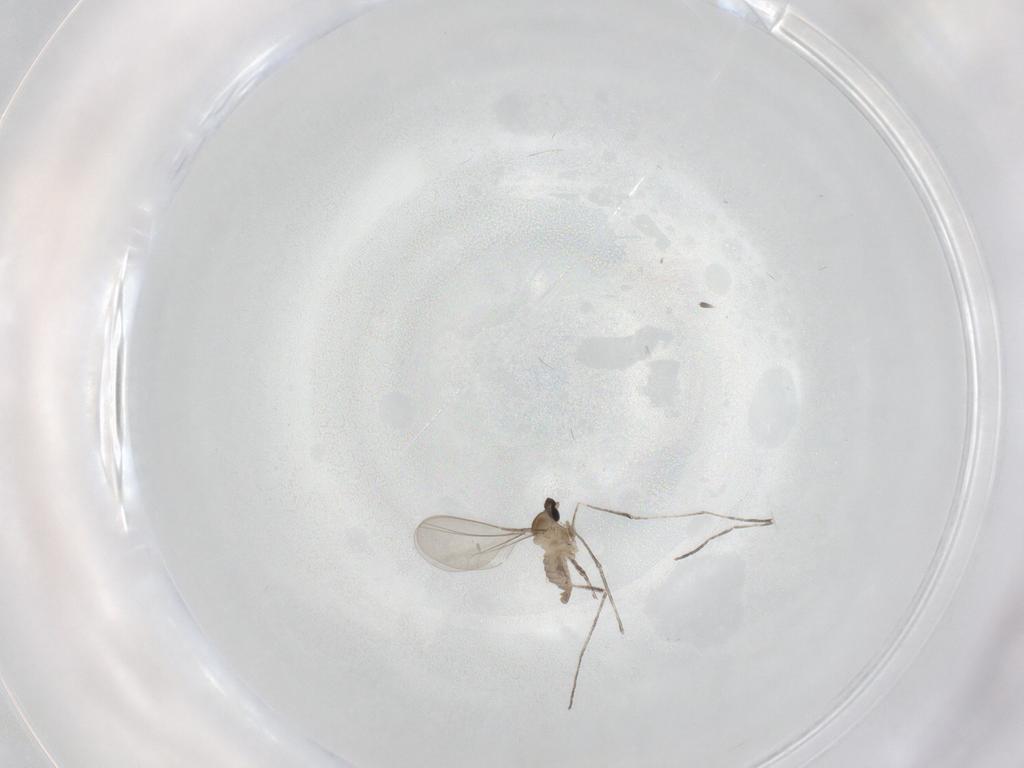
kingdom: Animalia
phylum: Arthropoda
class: Insecta
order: Diptera
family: Cecidomyiidae
